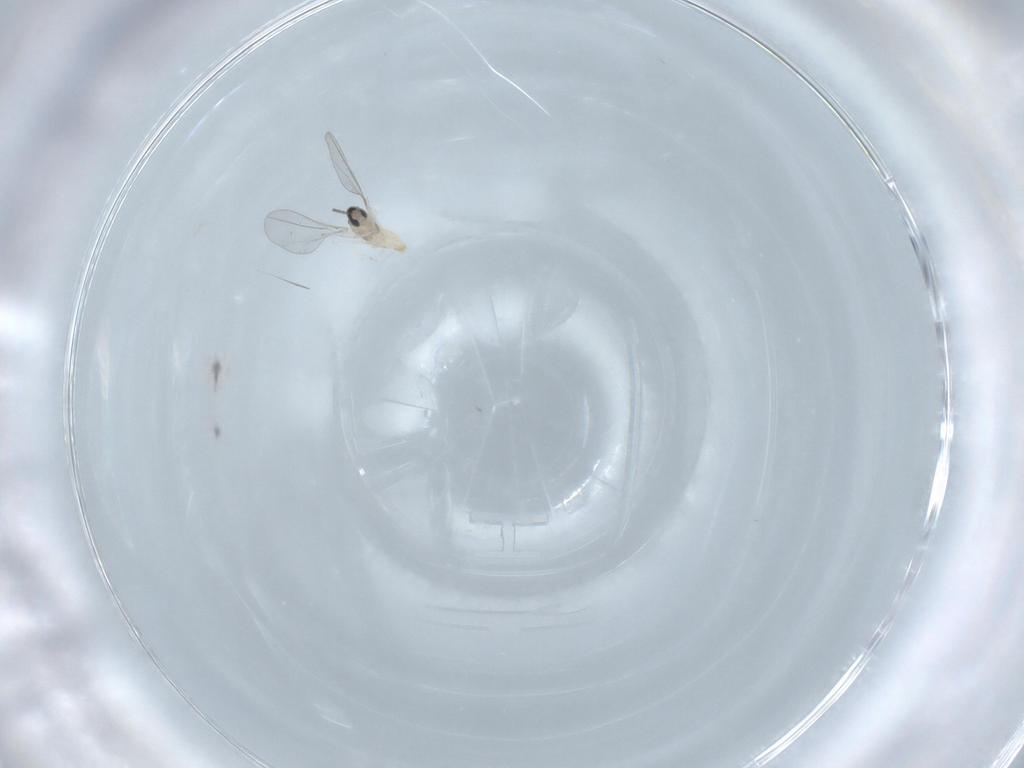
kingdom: Animalia
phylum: Arthropoda
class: Insecta
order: Diptera
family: Cecidomyiidae
